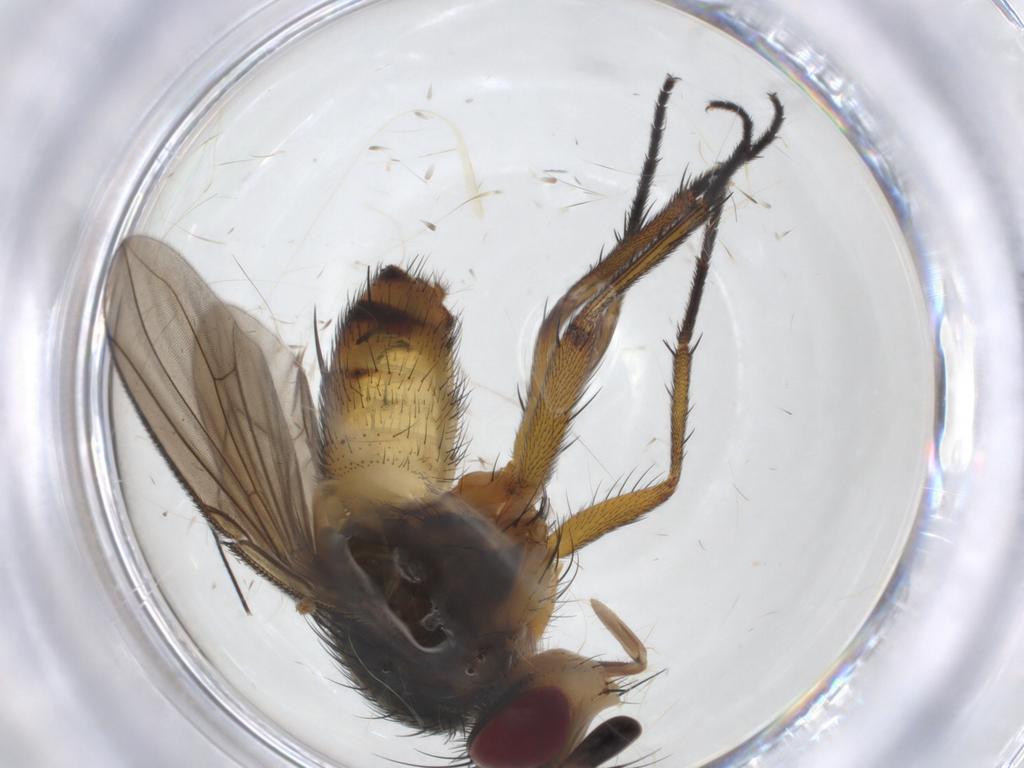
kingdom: Animalia
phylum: Arthropoda
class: Insecta
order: Diptera
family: Tachinidae
